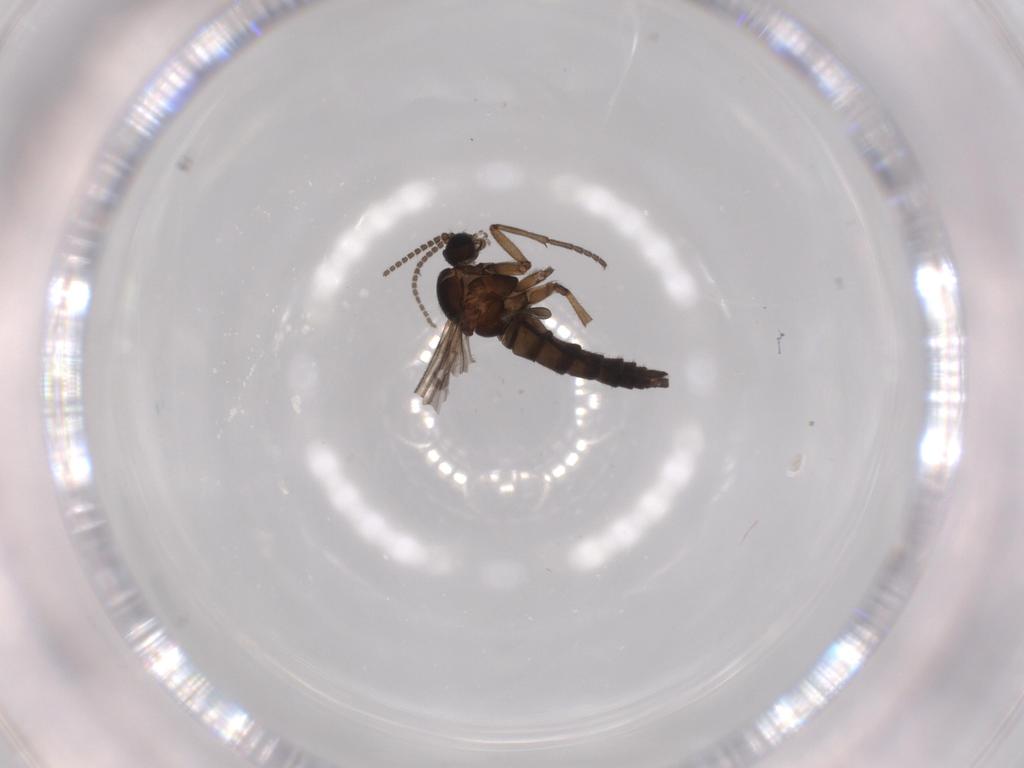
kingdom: Animalia
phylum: Arthropoda
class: Insecta
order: Diptera
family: Sciaridae
